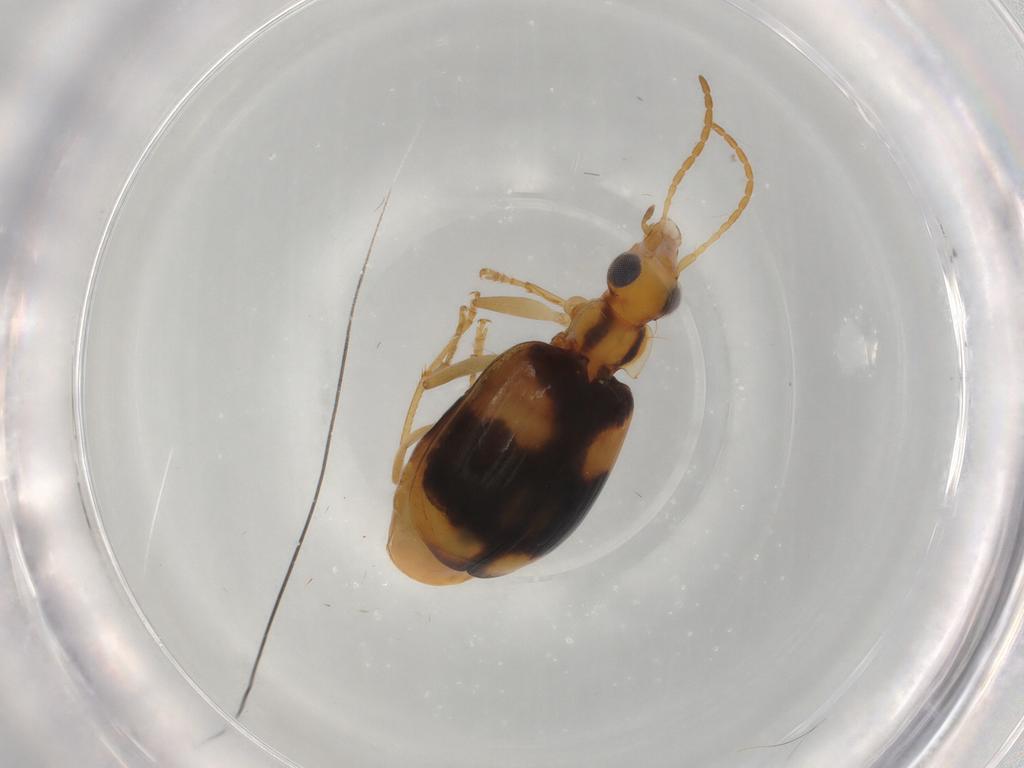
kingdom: Animalia
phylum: Arthropoda
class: Insecta
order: Coleoptera
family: Carabidae
